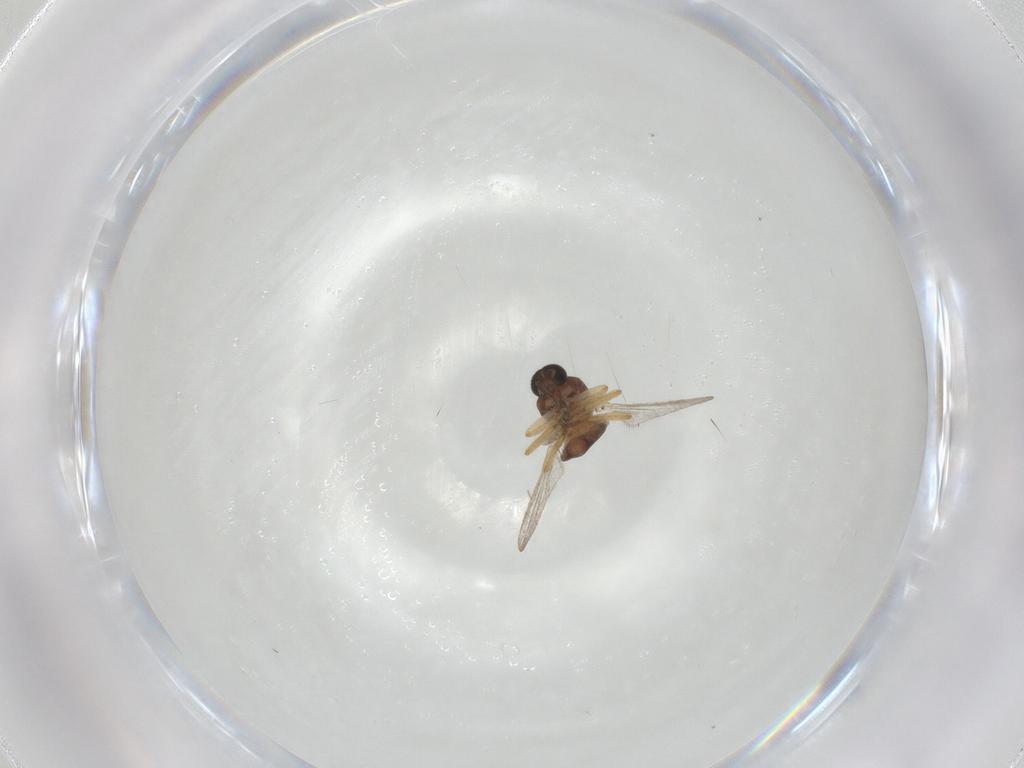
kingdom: Animalia
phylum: Arthropoda
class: Insecta
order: Diptera
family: Ceratopogonidae
